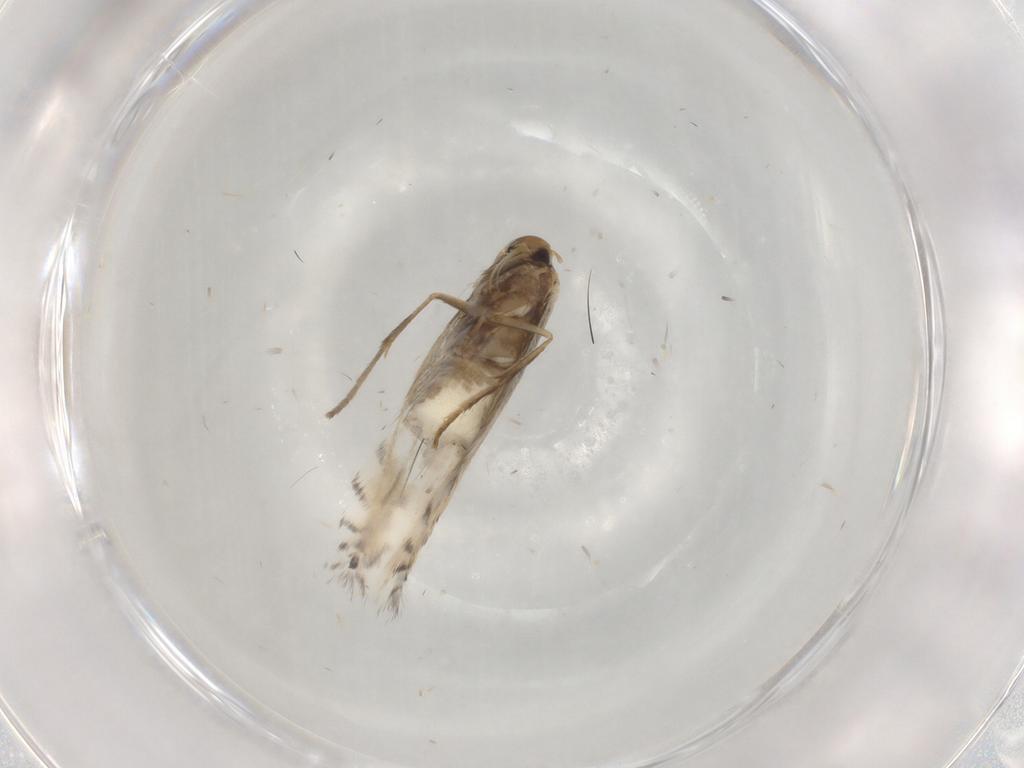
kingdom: Animalia
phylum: Arthropoda
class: Insecta
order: Lepidoptera
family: Gracillariidae
